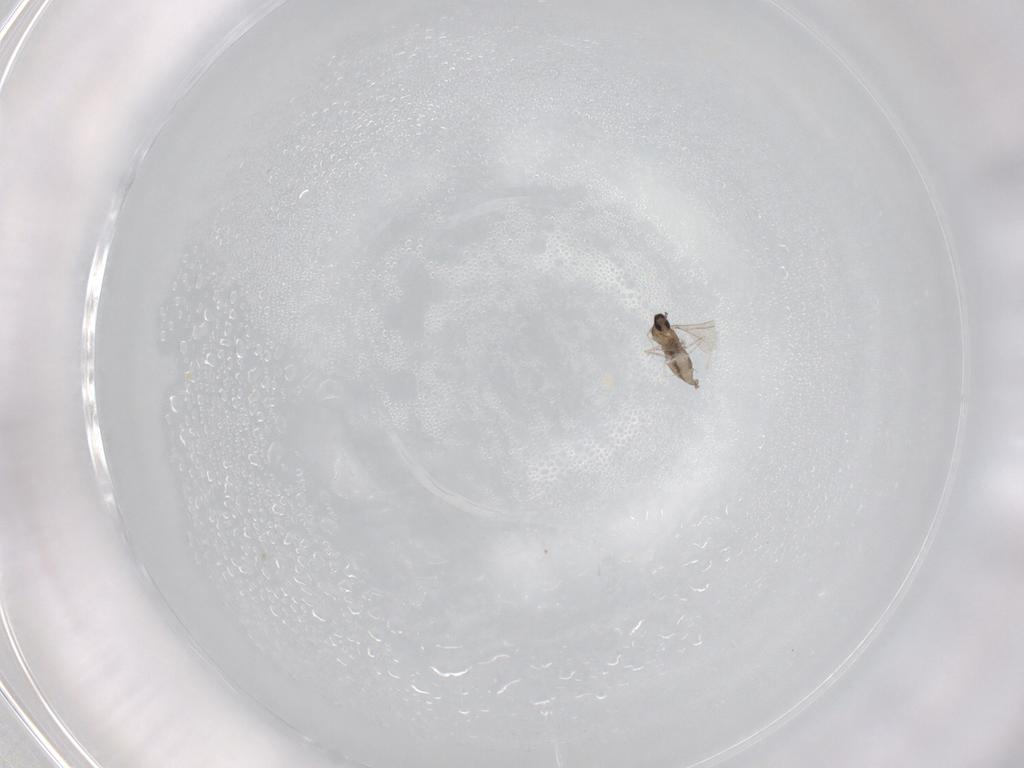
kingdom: Animalia
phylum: Arthropoda
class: Insecta
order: Diptera
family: Cecidomyiidae
